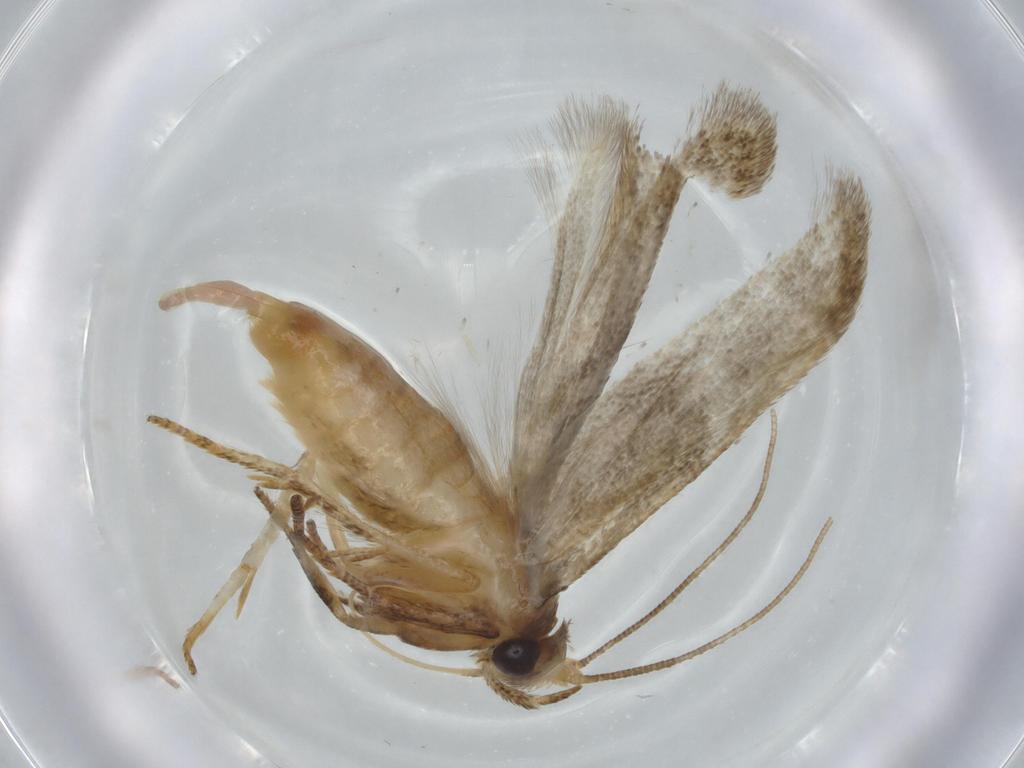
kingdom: Animalia
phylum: Arthropoda
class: Insecta
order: Lepidoptera
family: Blastobasidae
